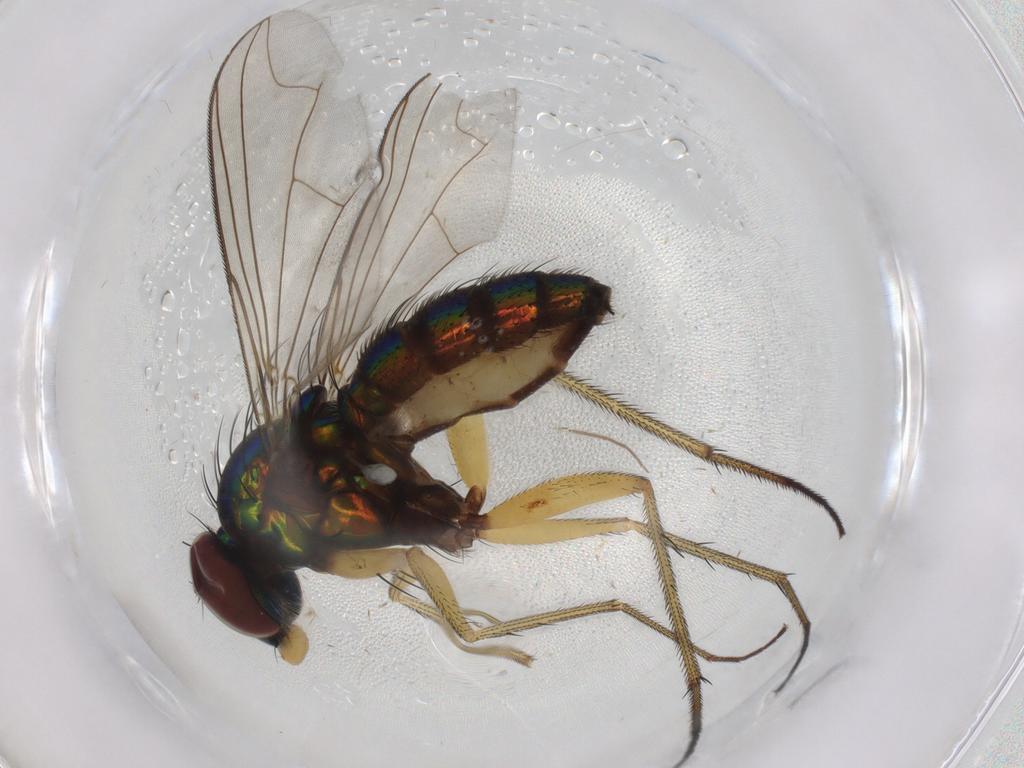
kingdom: Animalia
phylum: Arthropoda
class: Insecta
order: Diptera
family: Dolichopodidae
